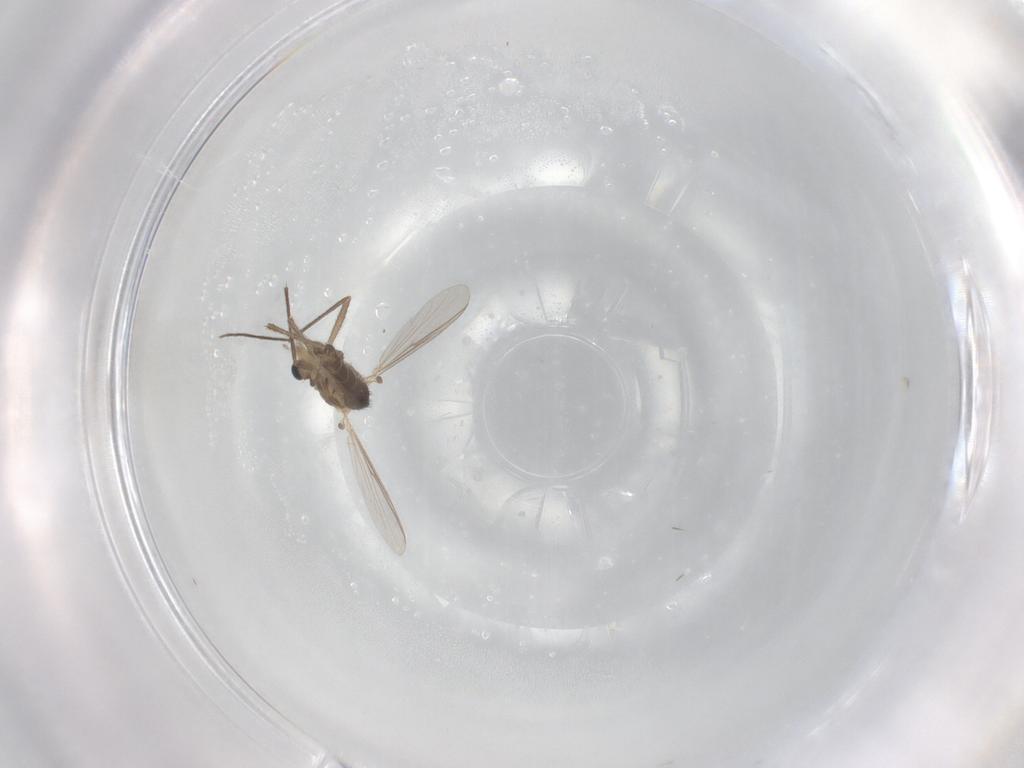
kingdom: Animalia
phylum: Arthropoda
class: Insecta
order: Diptera
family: Chironomidae
